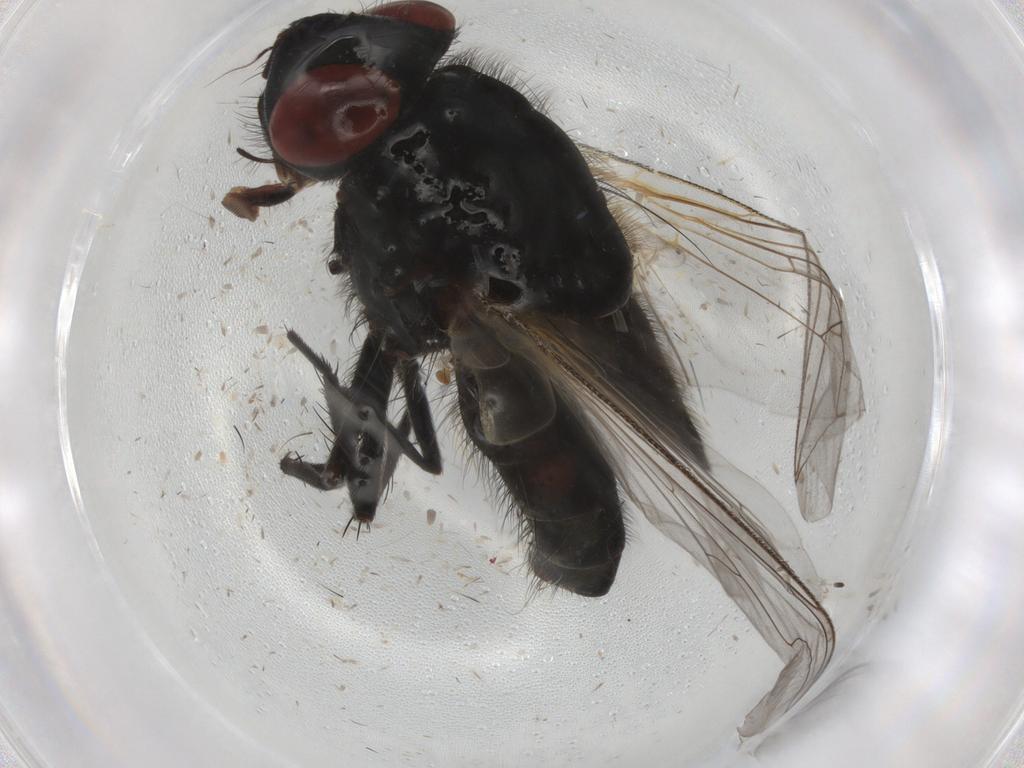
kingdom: Animalia
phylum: Arthropoda
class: Insecta
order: Diptera
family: Sarcophagidae
